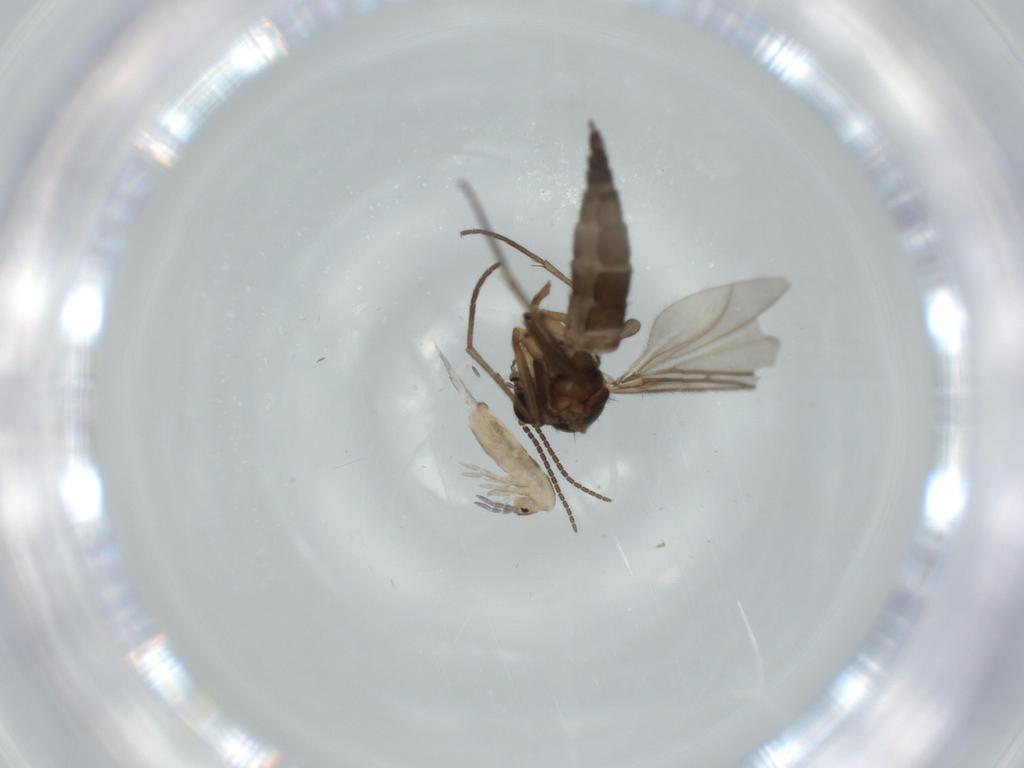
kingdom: Animalia
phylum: Arthropoda
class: Insecta
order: Diptera
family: Sciaridae
